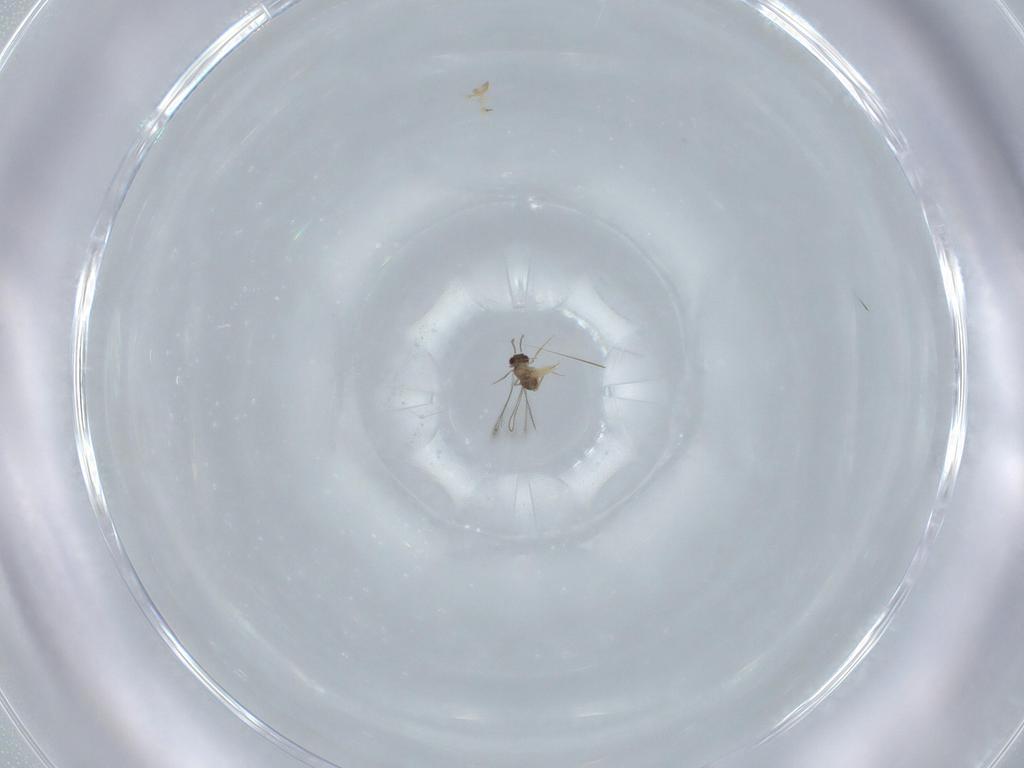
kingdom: Animalia
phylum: Arthropoda
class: Insecta
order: Hymenoptera
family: Mymaridae
